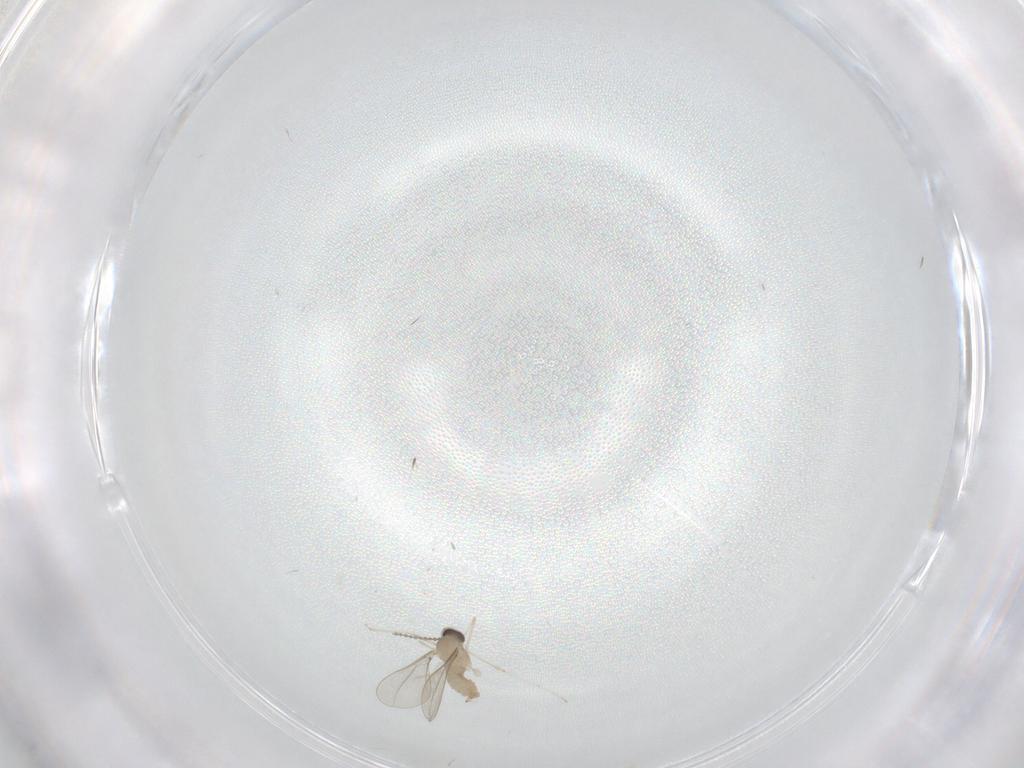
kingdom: Animalia
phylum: Arthropoda
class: Insecta
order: Diptera
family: Cecidomyiidae
